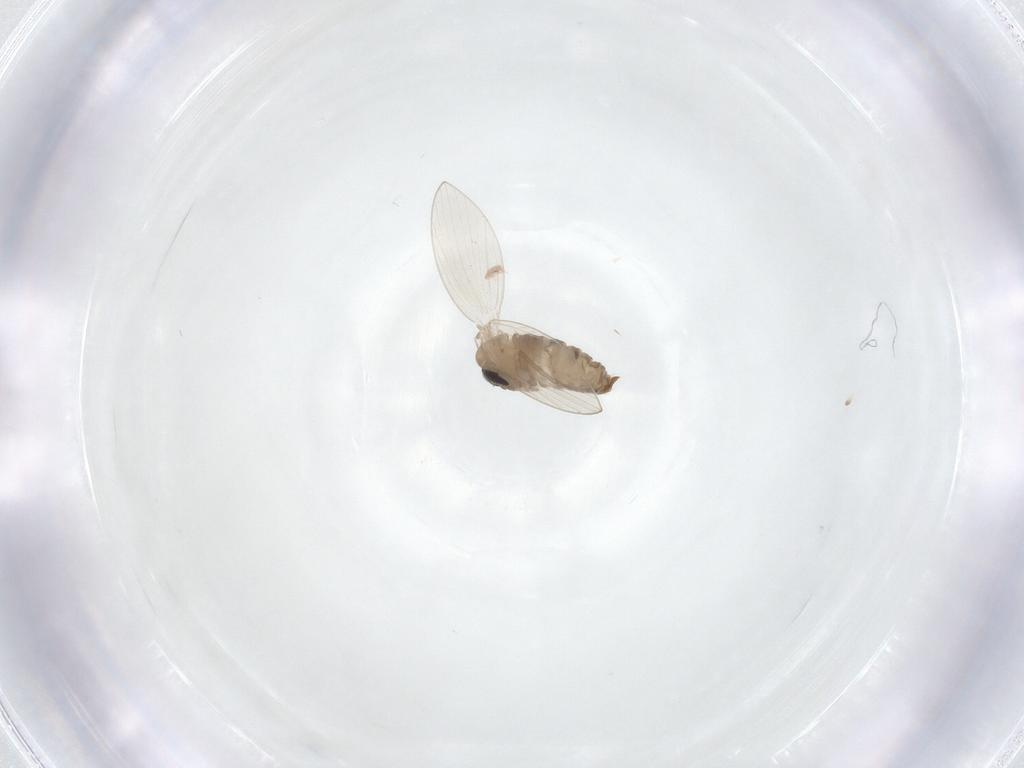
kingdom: Animalia
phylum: Arthropoda
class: Insecta
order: Diptera
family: Psychodidae
